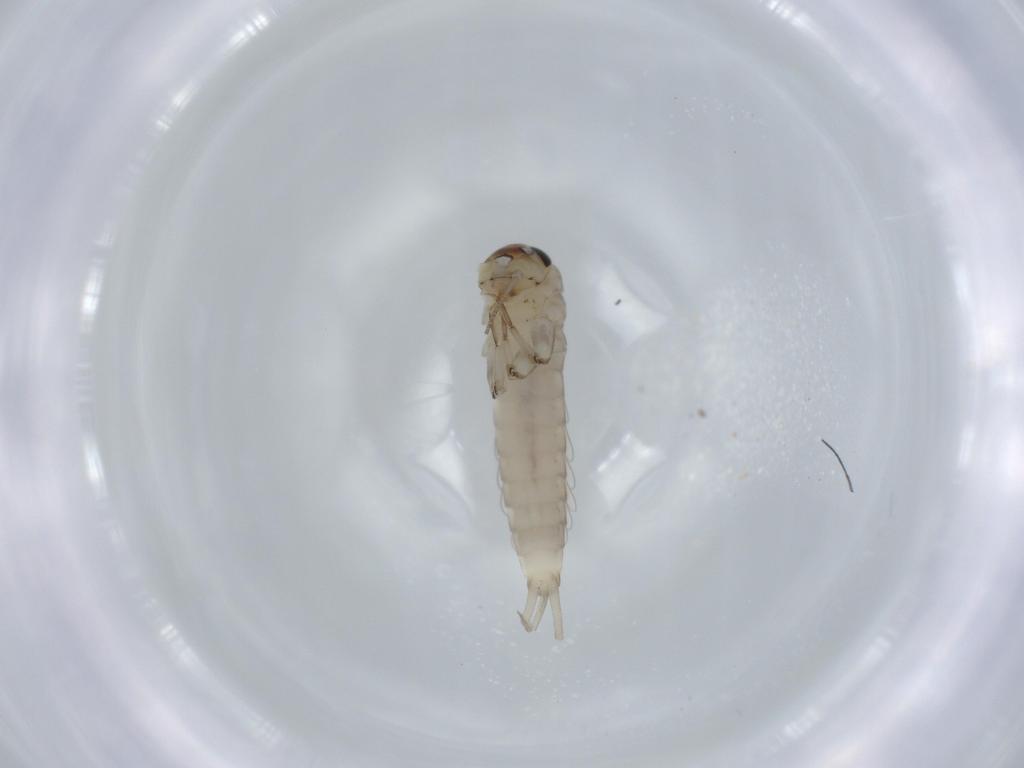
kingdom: Animalia
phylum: Arthropoda
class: Insecta
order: Ephemeroptera
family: Baetidae
